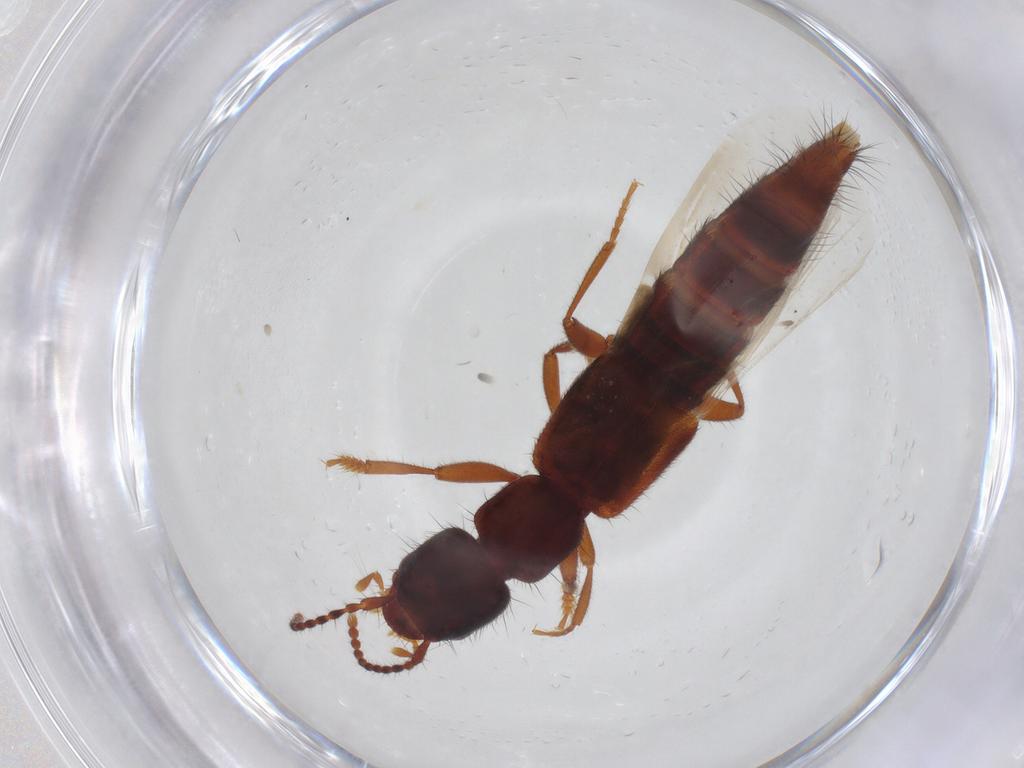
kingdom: Animalia
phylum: Arthropoda
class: Insecta
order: Coleoptera
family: Staphylinidae
